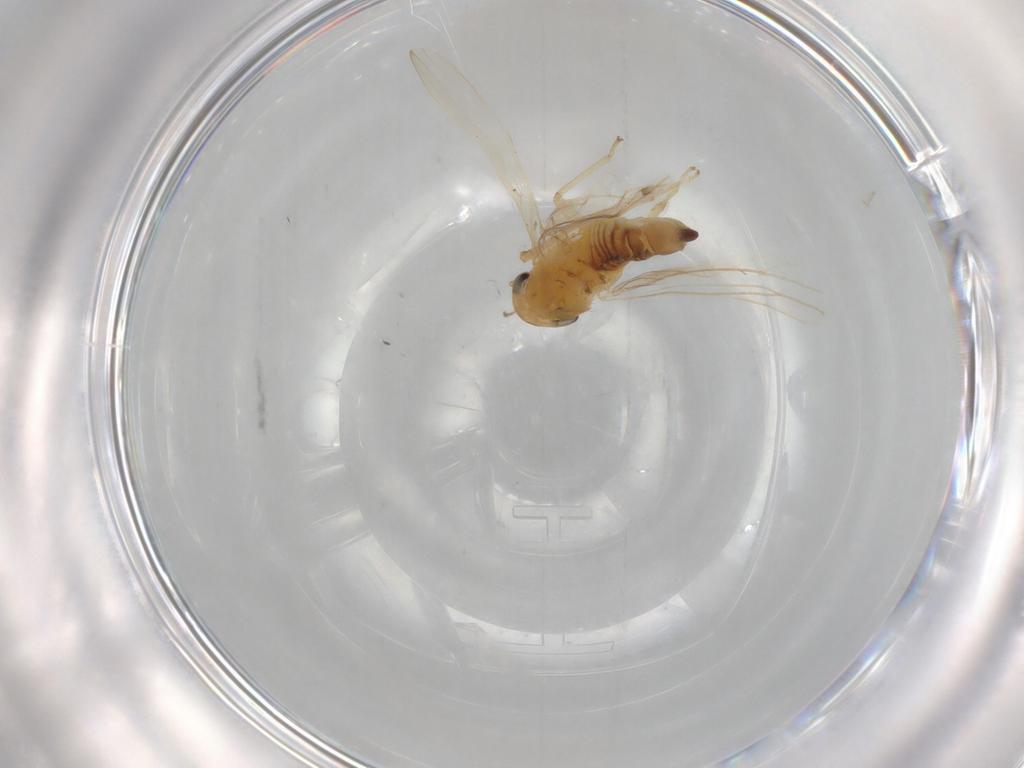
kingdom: Animalia
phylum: Arthropoda
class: Insecta
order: Hemiptera
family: Cicadellidae
